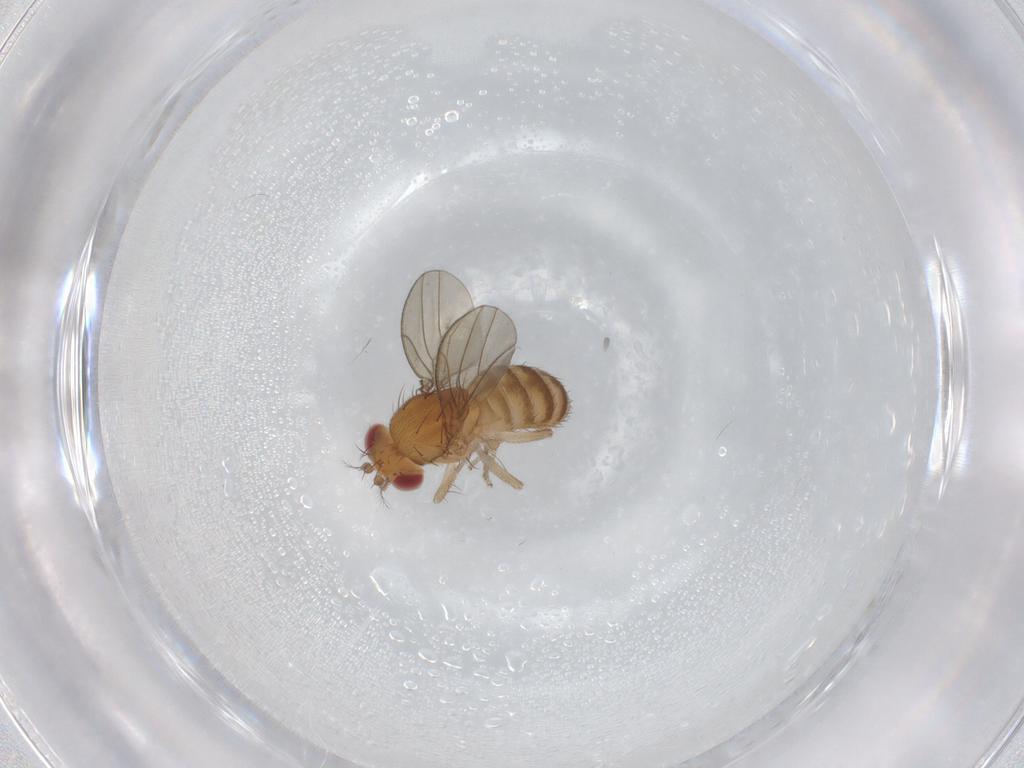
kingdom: Animalia
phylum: Arthropoda
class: Insecta
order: Diptera
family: Drosophilidae
